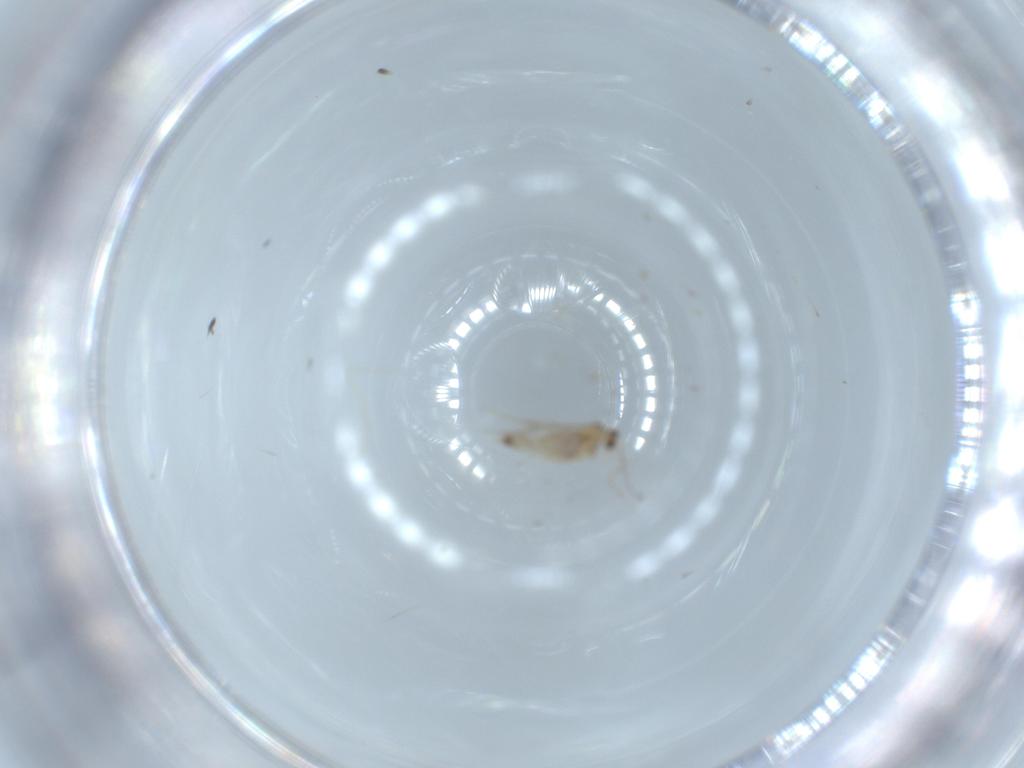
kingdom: Animalia
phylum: Arthropoda
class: Insecta
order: Diptera
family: Cecidomyiidae
